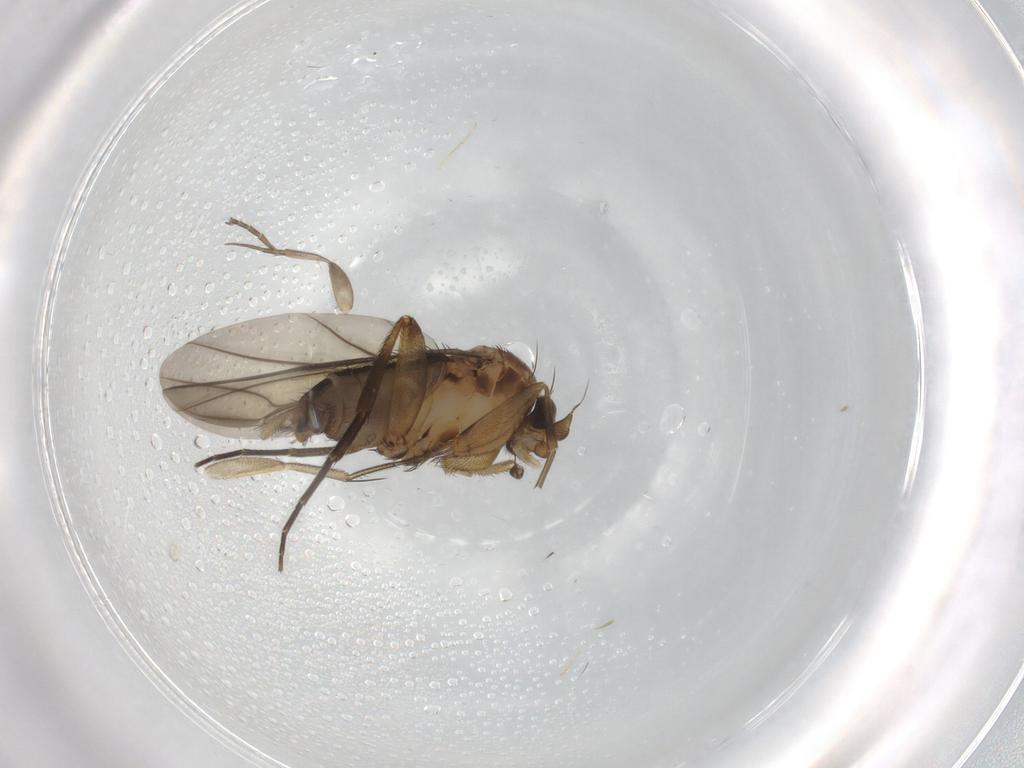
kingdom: Animalia
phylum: Arthropoda
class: Insecta
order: Diptera
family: Phoridae
